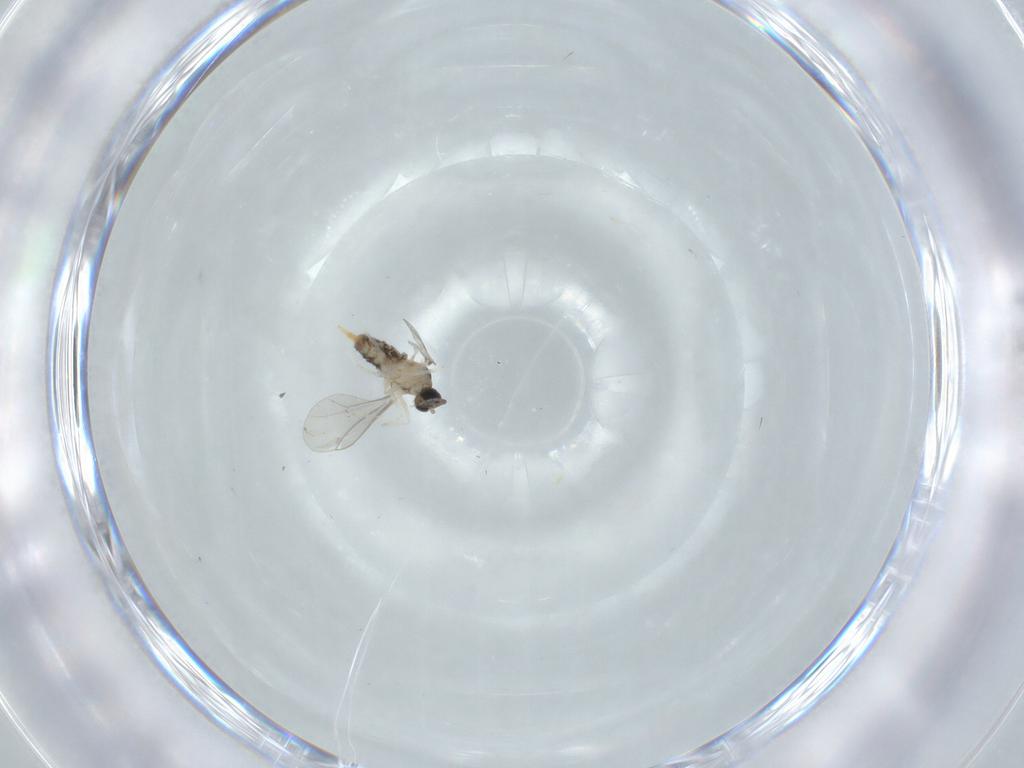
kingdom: Animalia
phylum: Arthropoda
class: Insecta
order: Diptera
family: Cecidomyiidae
